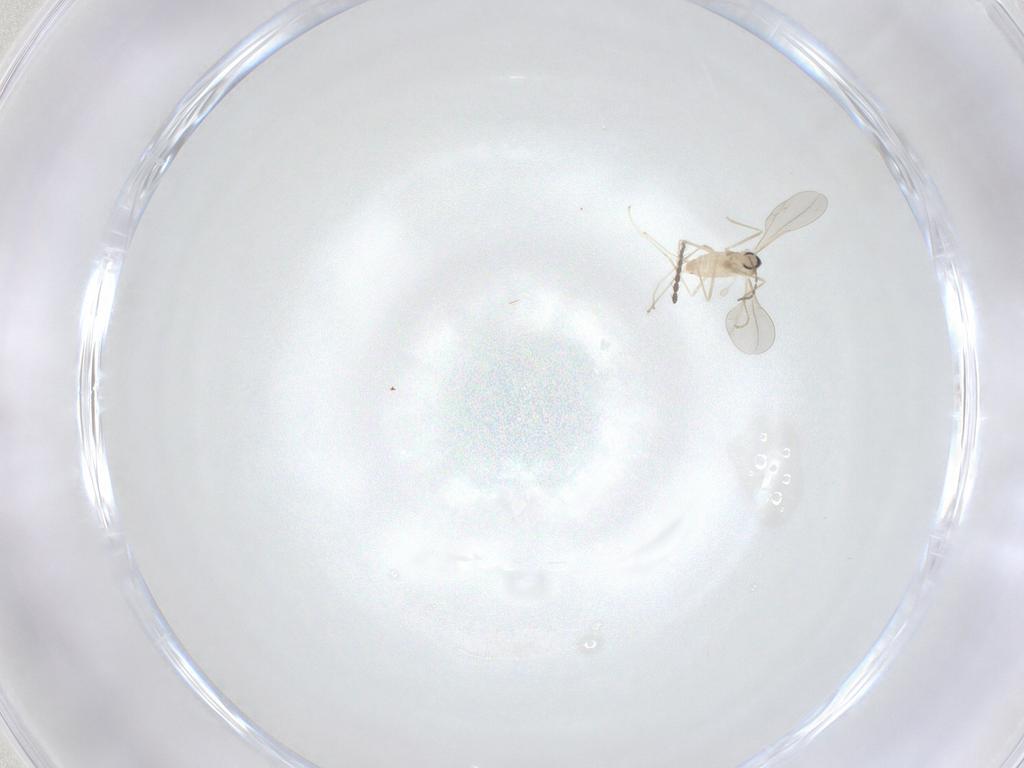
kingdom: Animalia
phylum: Arthropoda
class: Insecta
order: Diptera
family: Cecidomyiidae
